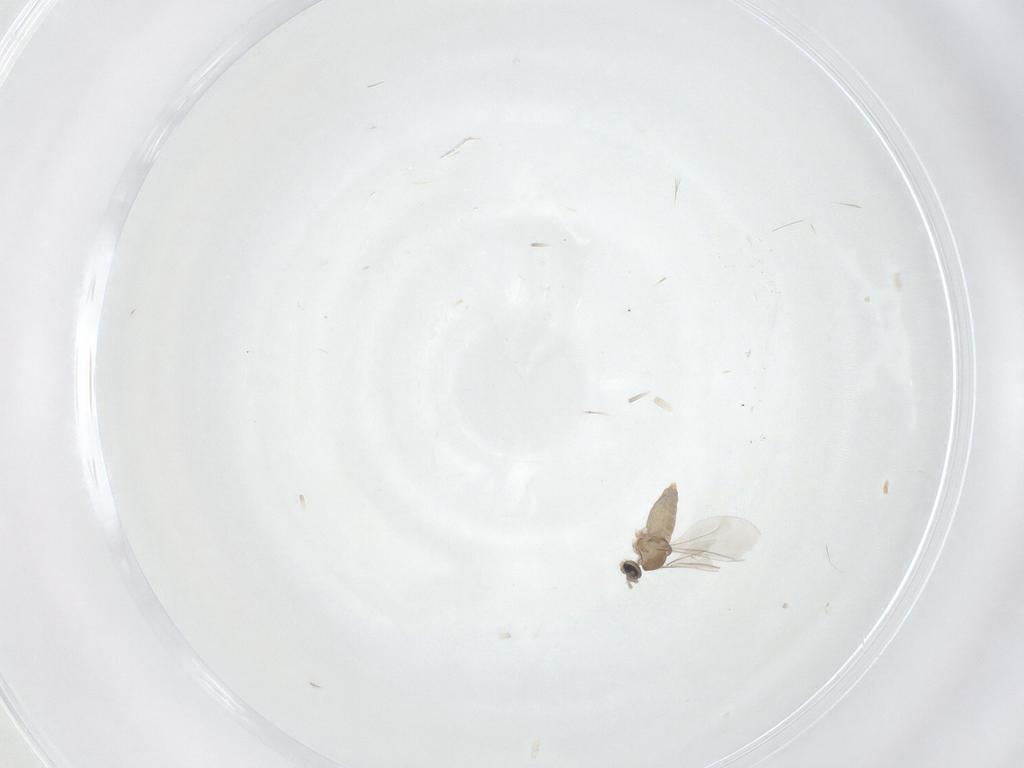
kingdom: Animalia
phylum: Arthropoda
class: Insecta
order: Diptera
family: Cecidomyiidae
